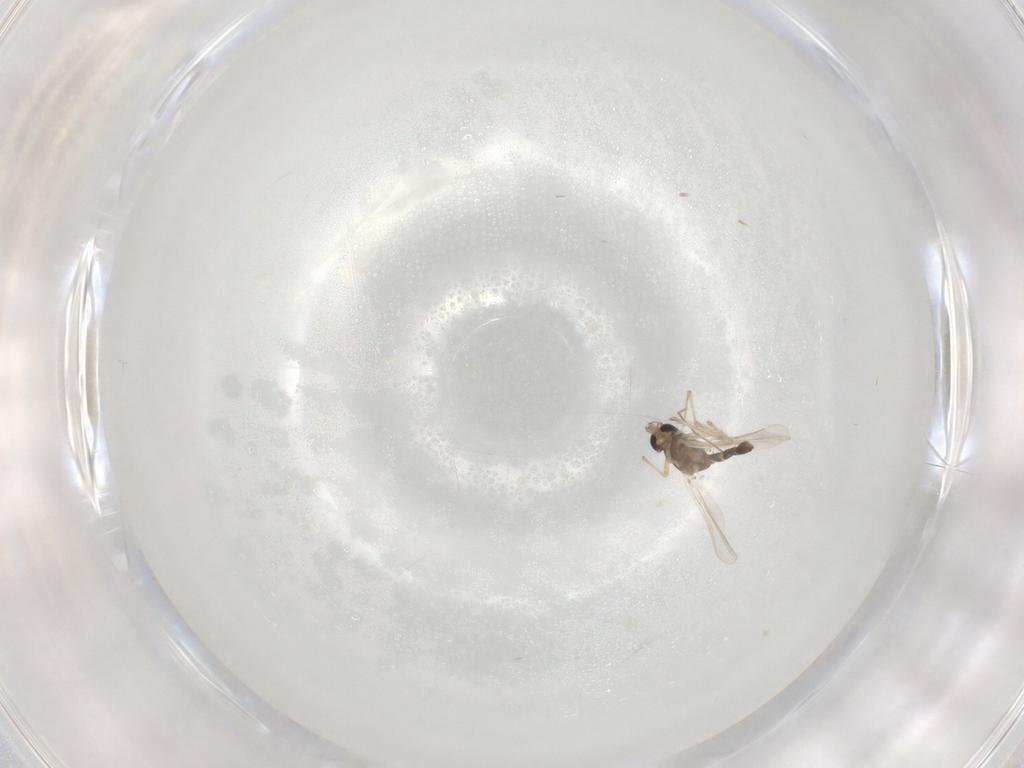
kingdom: Animalia
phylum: Arthropoda
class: Insecta
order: Diptera
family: Chironomidae
